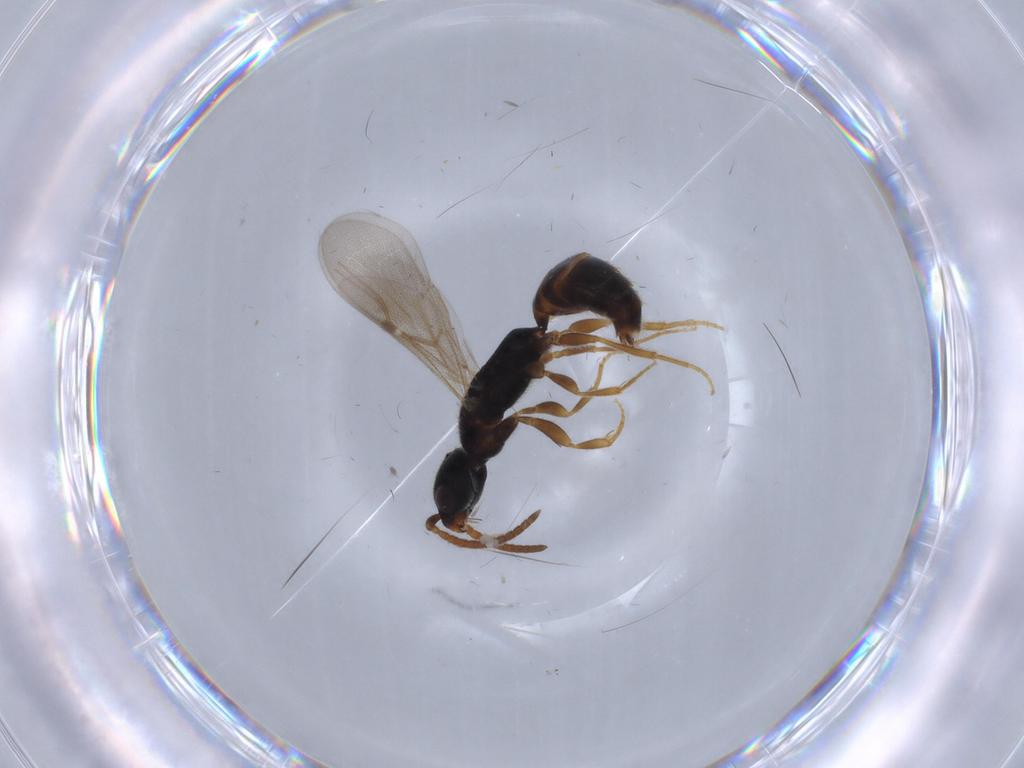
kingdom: Animalia
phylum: Arthropoda
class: Insecta
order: Hymenoptera
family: Bethylidae
